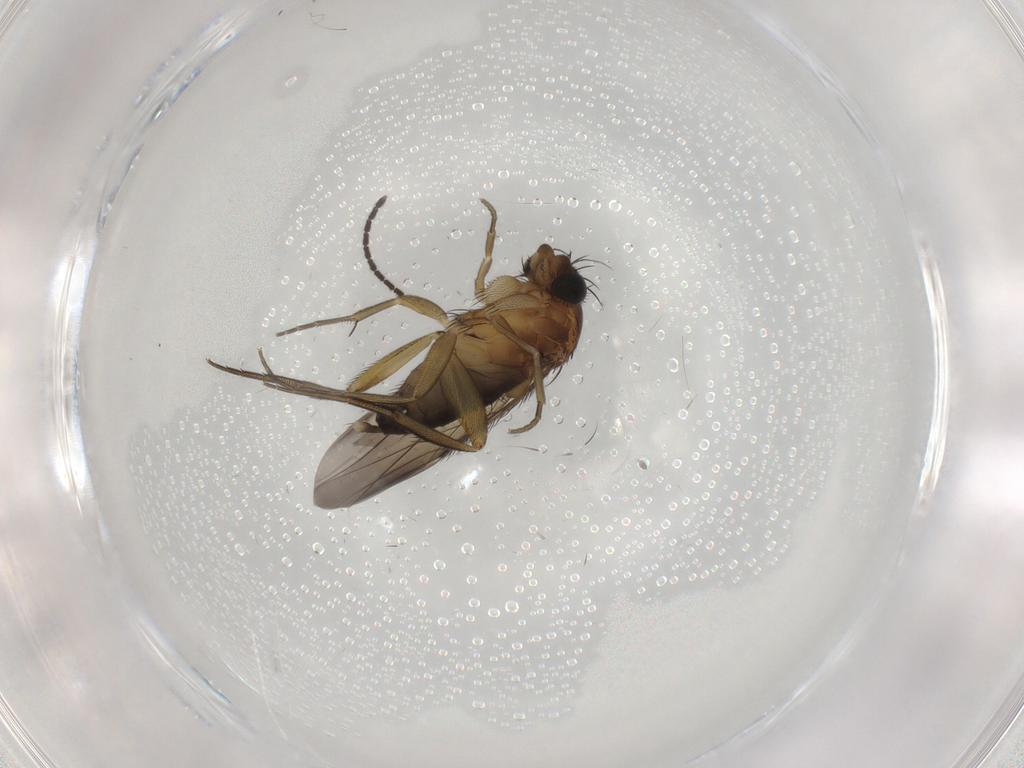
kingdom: Animalia
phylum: Arthropoda
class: Insecta
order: Diptera
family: Phoridae
